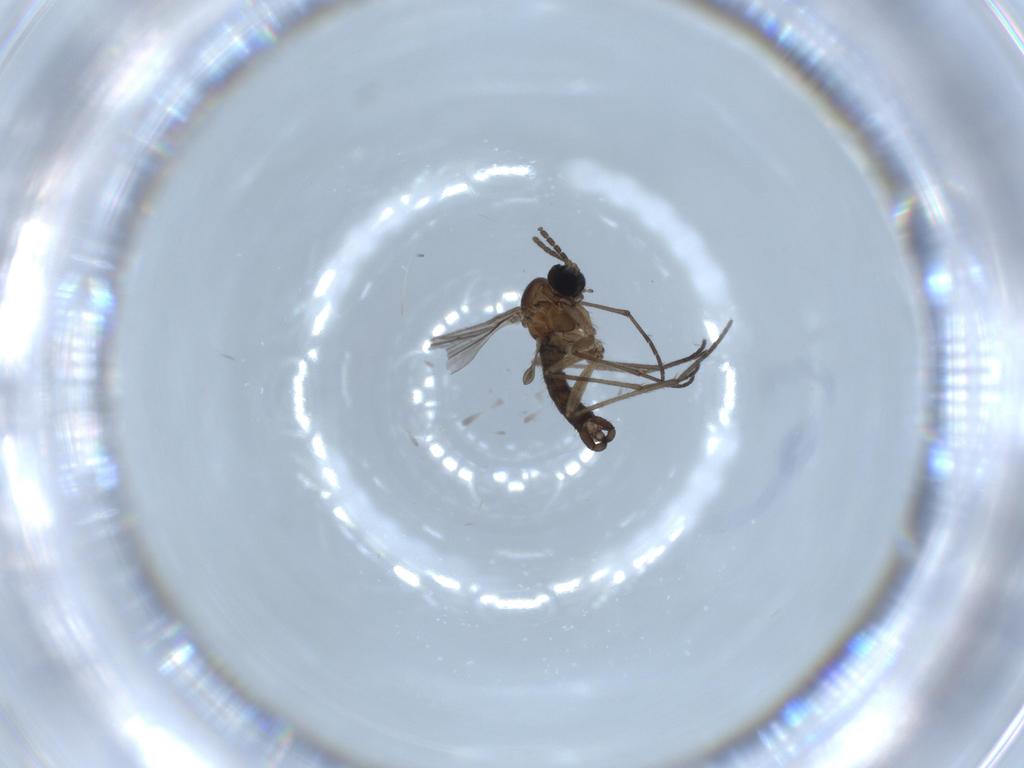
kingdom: Animalia
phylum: Arthropoda
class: Insecta
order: Diptera
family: Sciaridae
